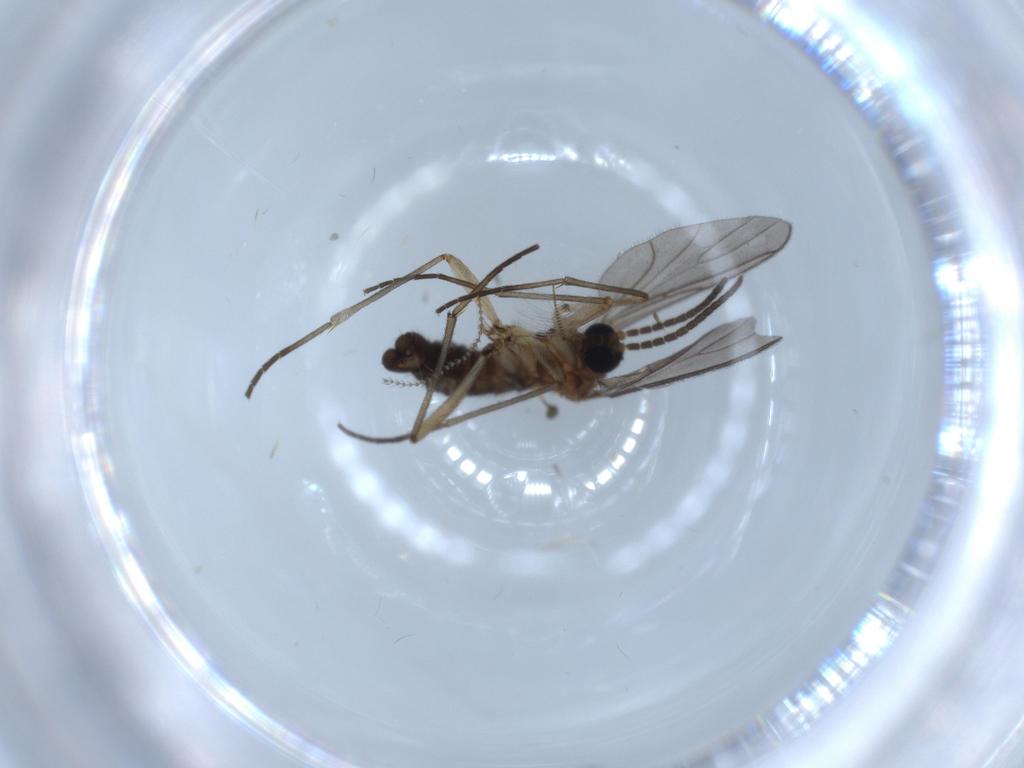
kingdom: Animalia
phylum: Arthropoda
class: Insecta
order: Diptera
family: Sciaridae
